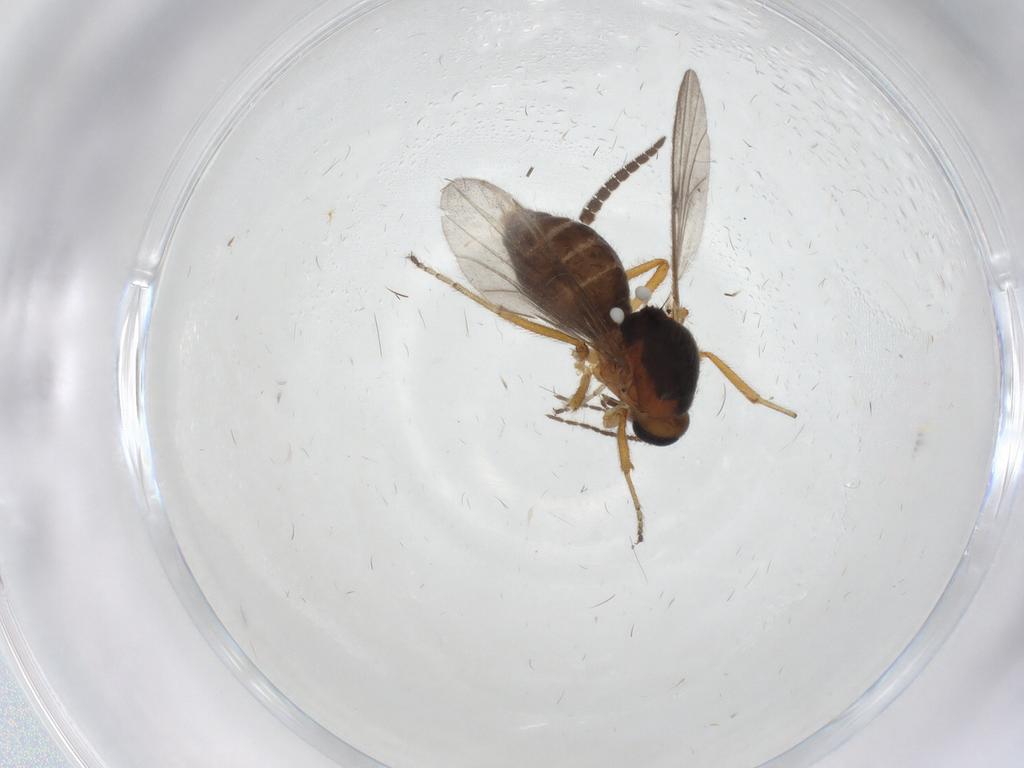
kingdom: Animalia
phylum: Arthropoda
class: Insecta
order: Diptera
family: Ceratopogonidae
